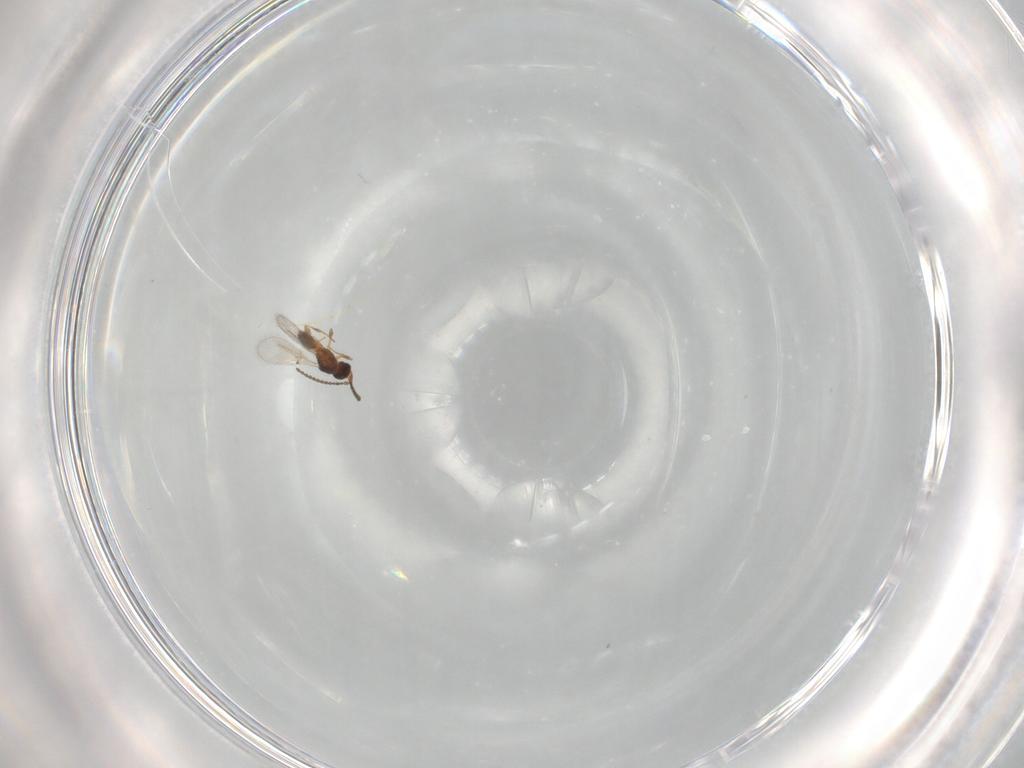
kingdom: Animalia
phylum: Arthropoda
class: Insecta
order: Hymenoptera
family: Diapriidae
